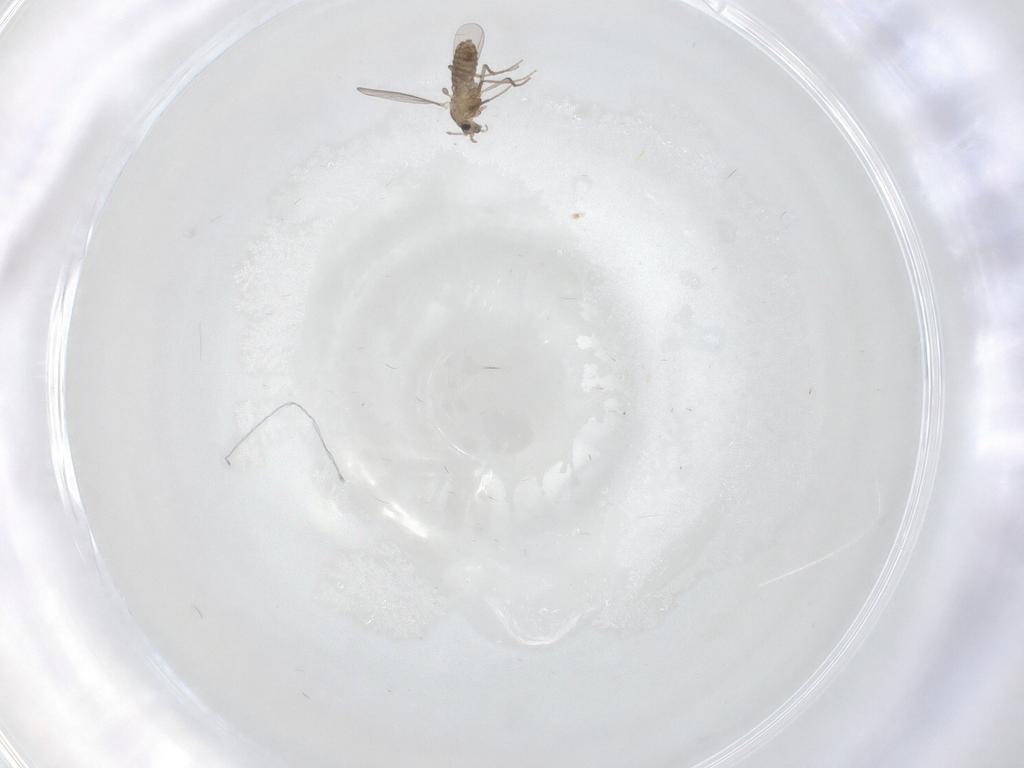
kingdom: Animalia
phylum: Arthropoda
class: Insecta
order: Diptera
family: Chironomidae
